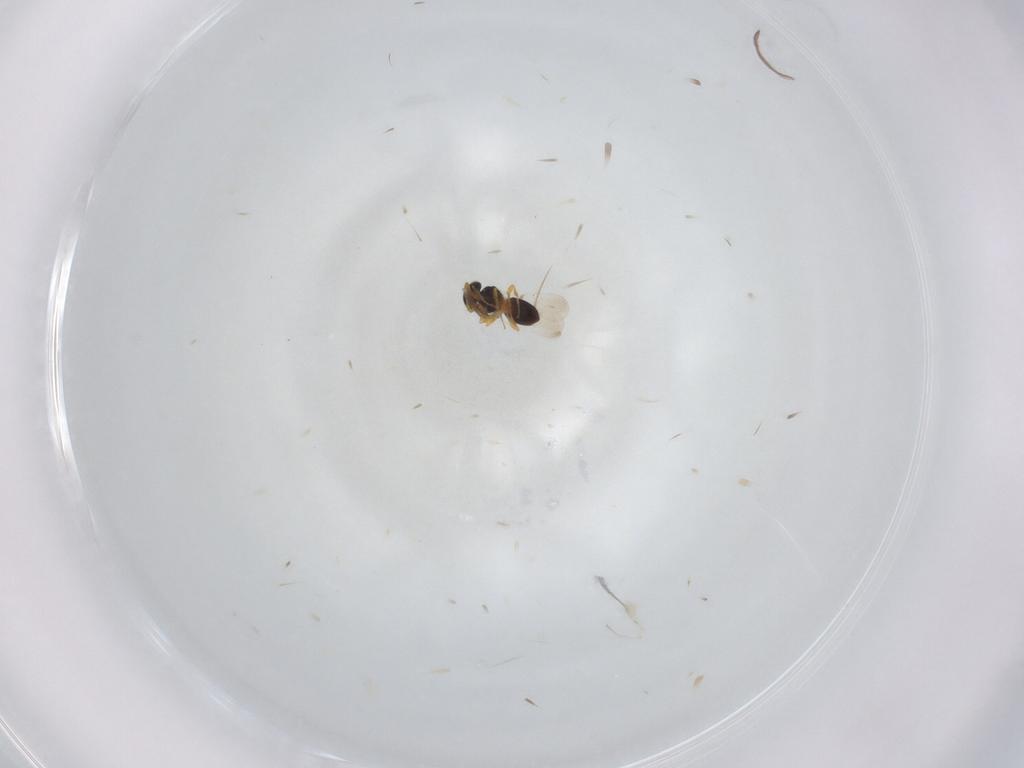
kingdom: Animalia
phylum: Arthropoda
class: Insecta
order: Hymenoptera
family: Platygastridae
